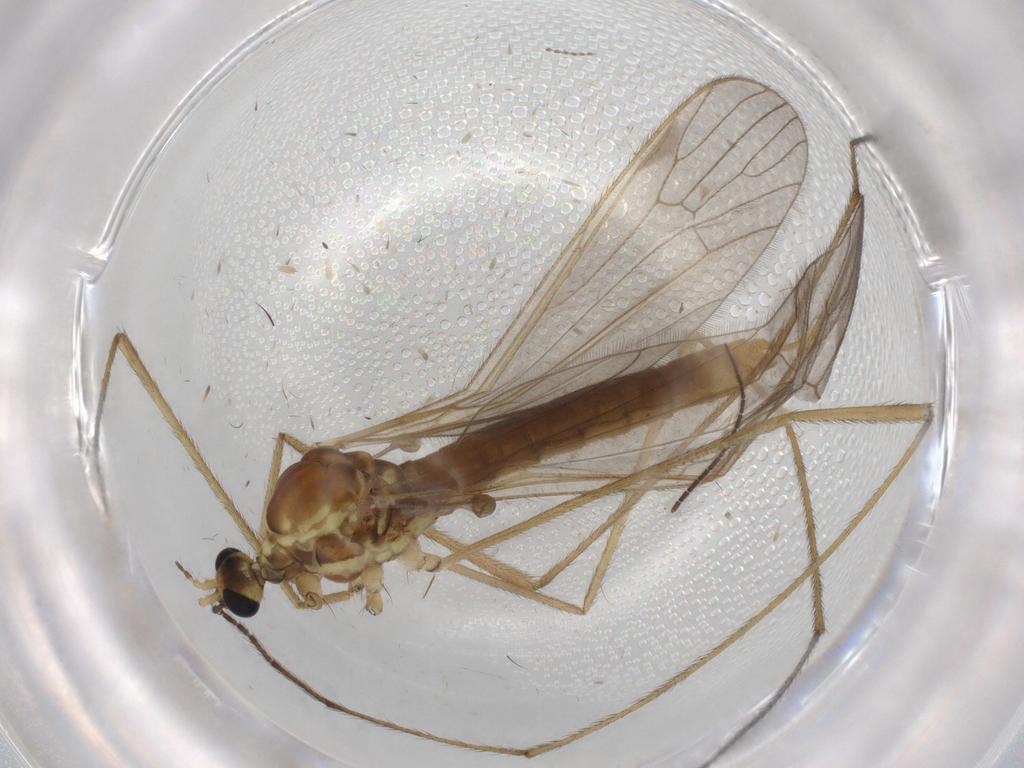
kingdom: Animalia
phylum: Arthropoda
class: Insecta
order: Diptera
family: Limoniidae
